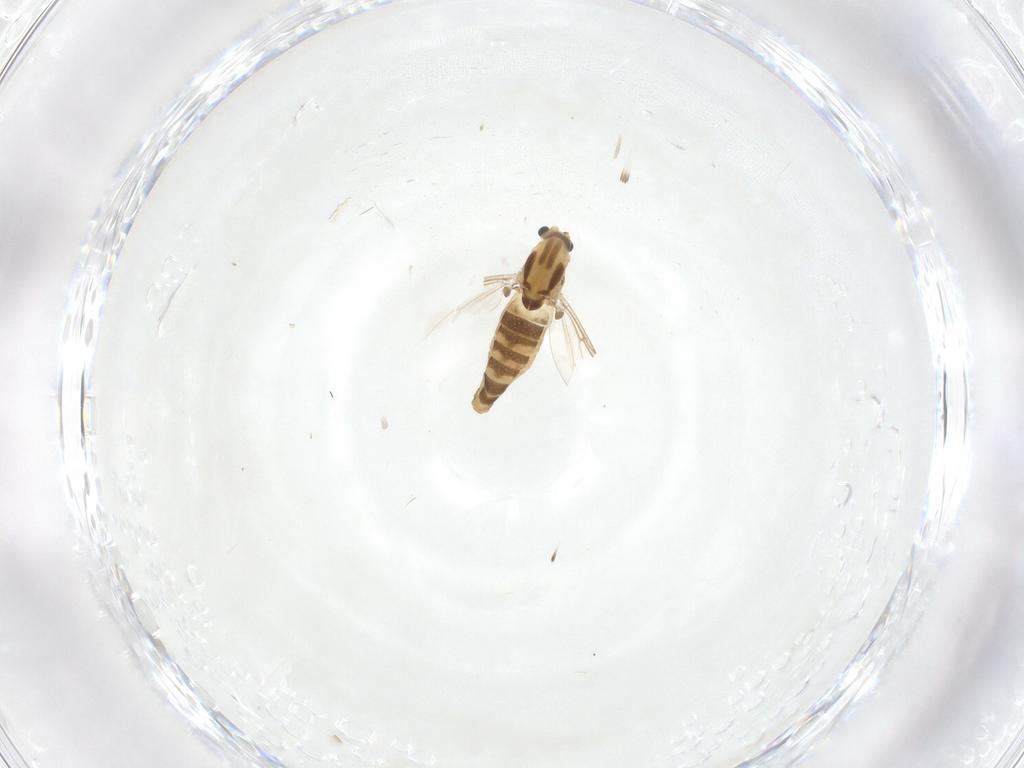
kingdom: Animalia
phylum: Arthropoda
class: Insecta
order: Diptera
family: Chironomidae
